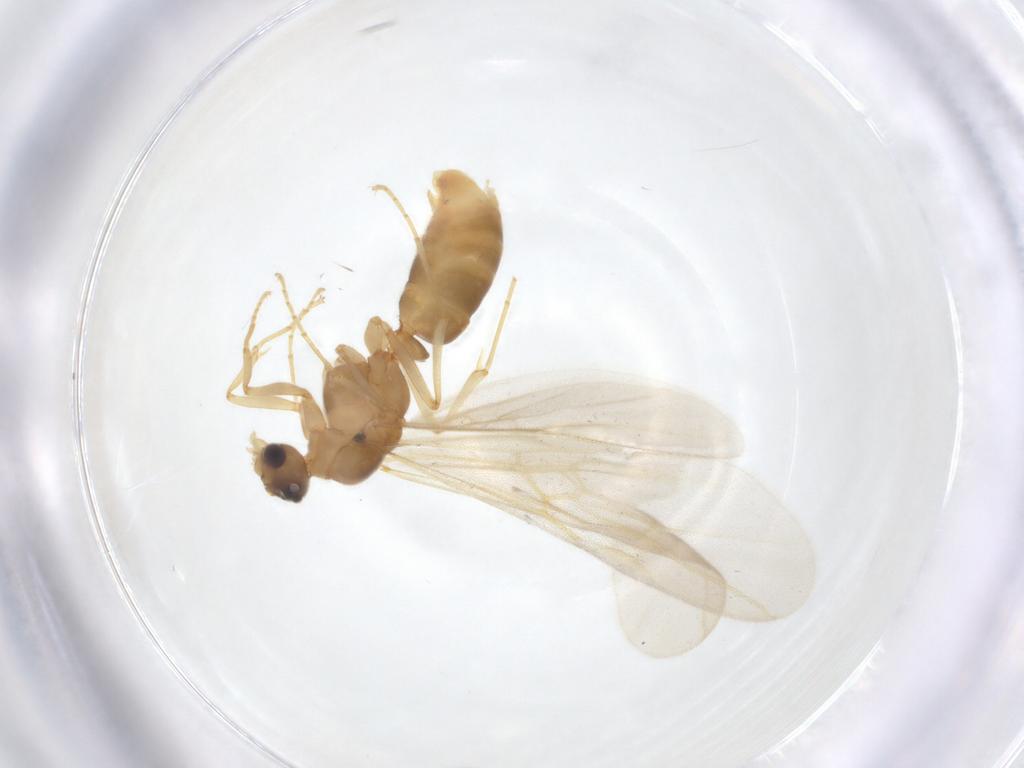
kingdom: Animalia
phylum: Arthropoda
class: Insecta
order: Hymenoptera
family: Formicidae
